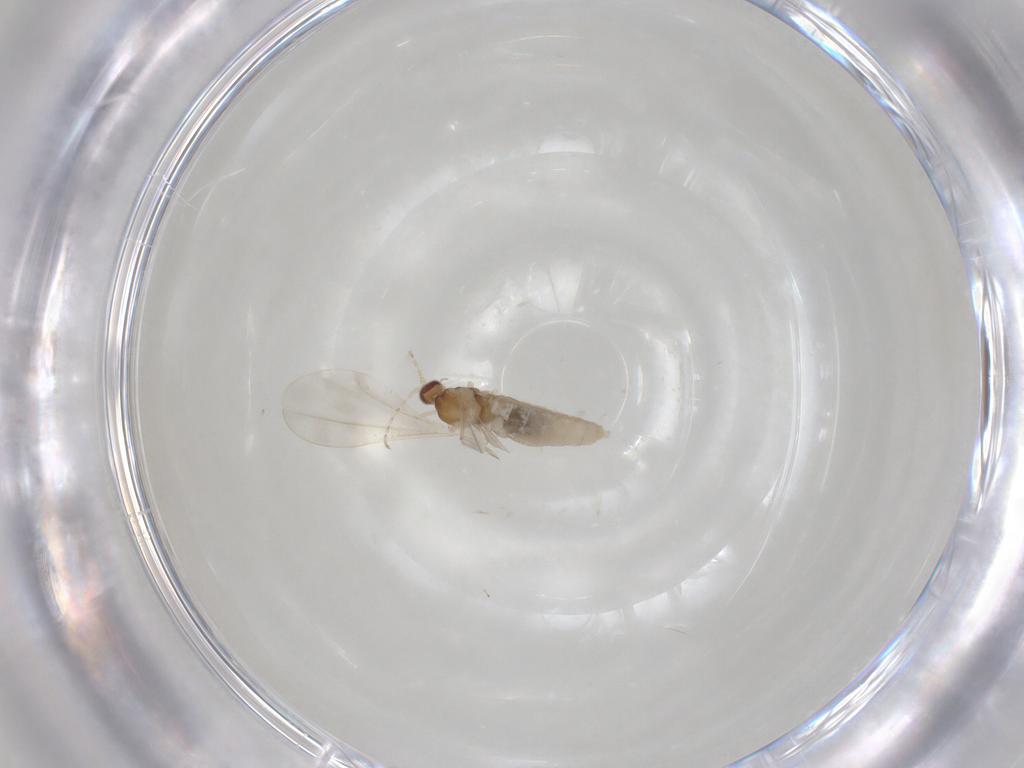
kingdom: Animalia
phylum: Arthropoda
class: Insecta
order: Diptera
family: Cecidomyiidae
